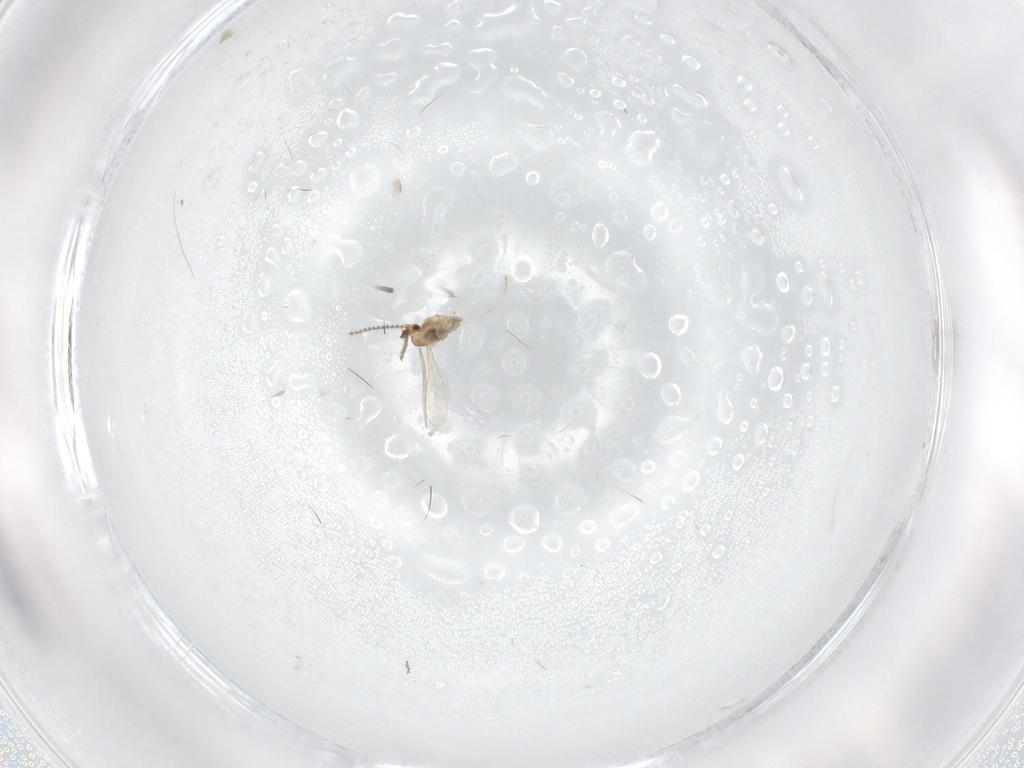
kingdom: Animalia
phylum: Arthropoda
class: Insecta
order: Diptera
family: Cecidomyiidae
